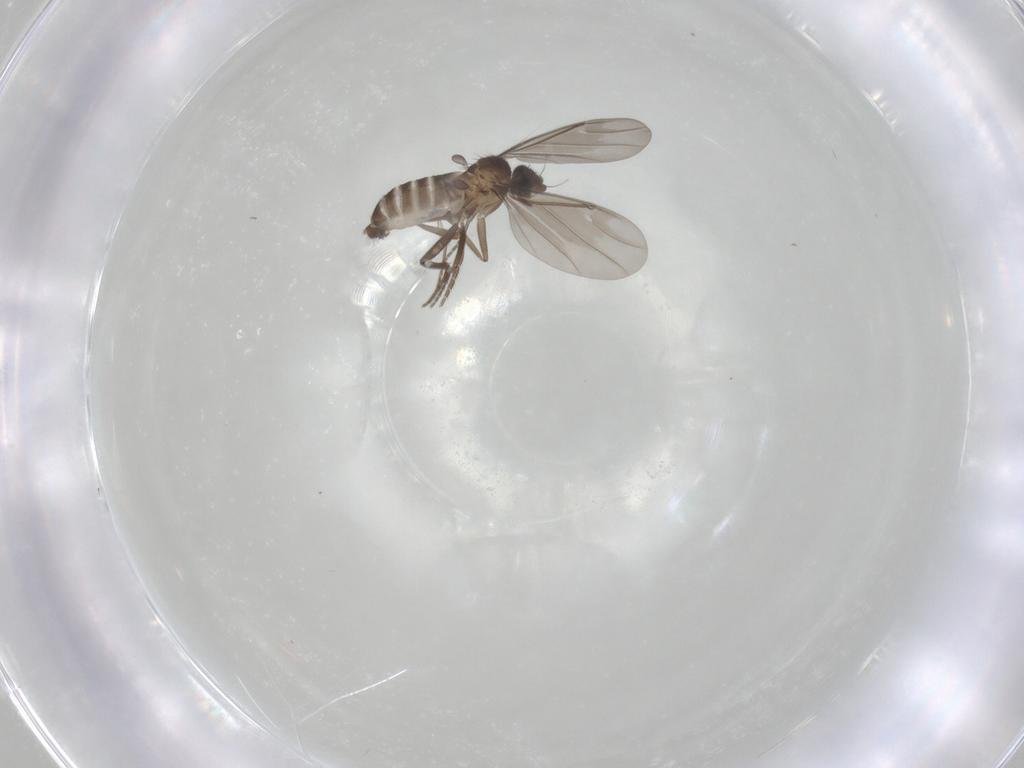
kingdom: Animalia
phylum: Arthropoda
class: Insecta
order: Diptera
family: Phoridae
